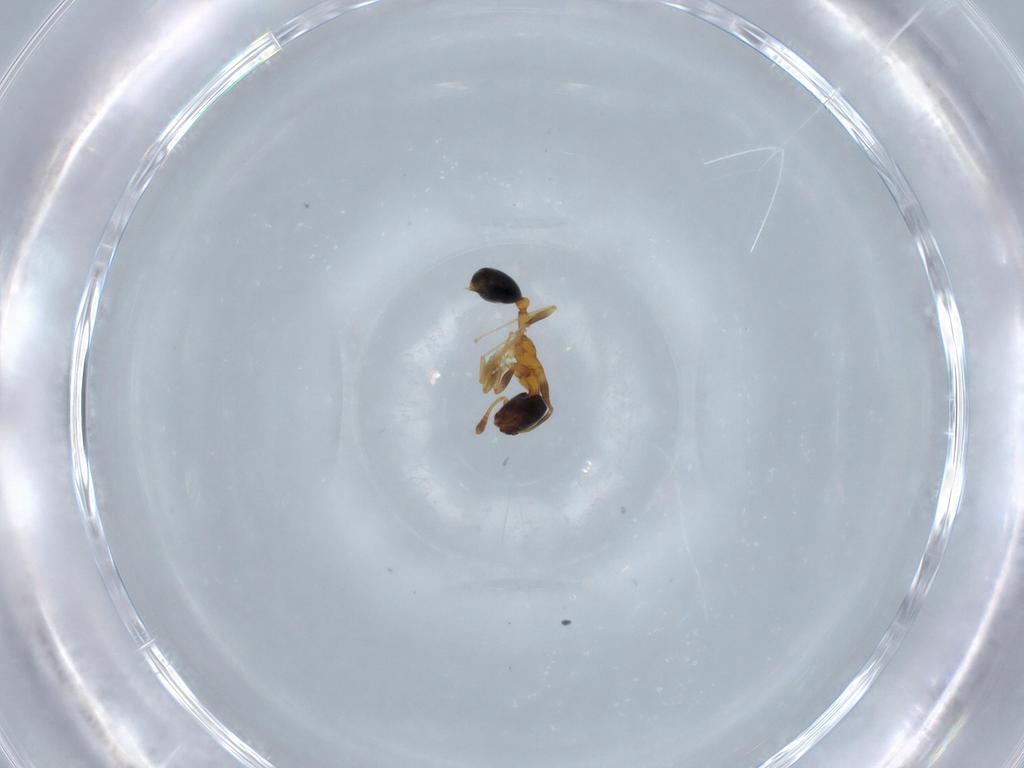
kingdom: Animalia
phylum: Arthropoda
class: Insecta
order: Hymenoptera
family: Formicidae
